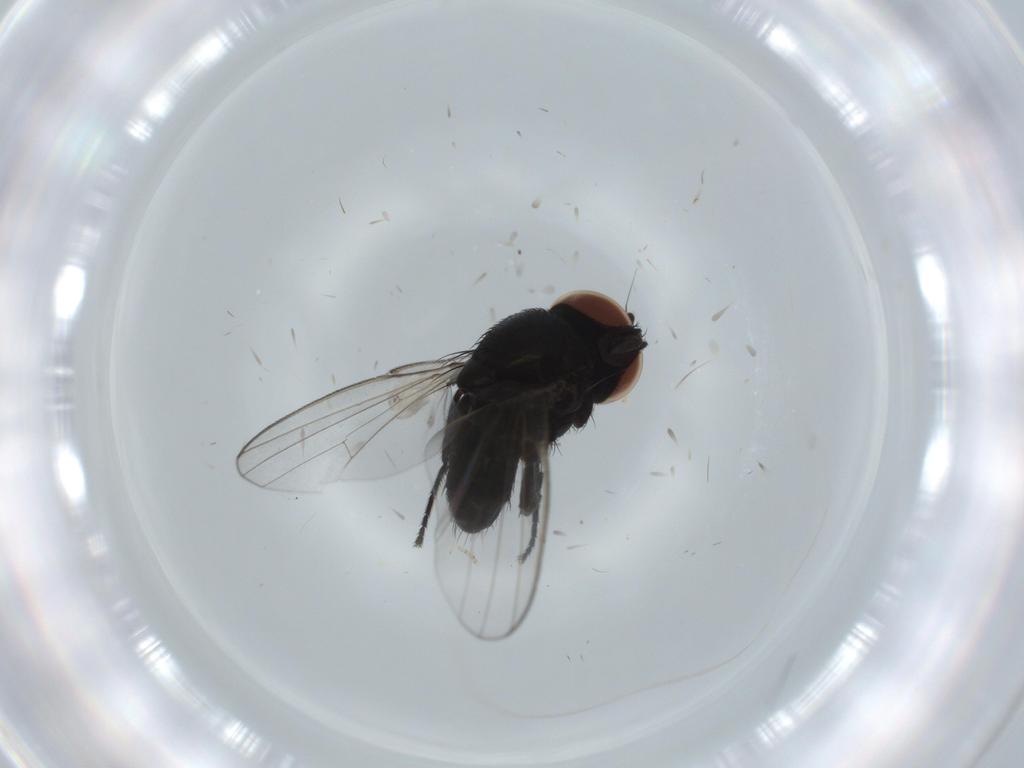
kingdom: Animalia
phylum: Arthropoda
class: Insecta
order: Diptera
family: Milichiidae
